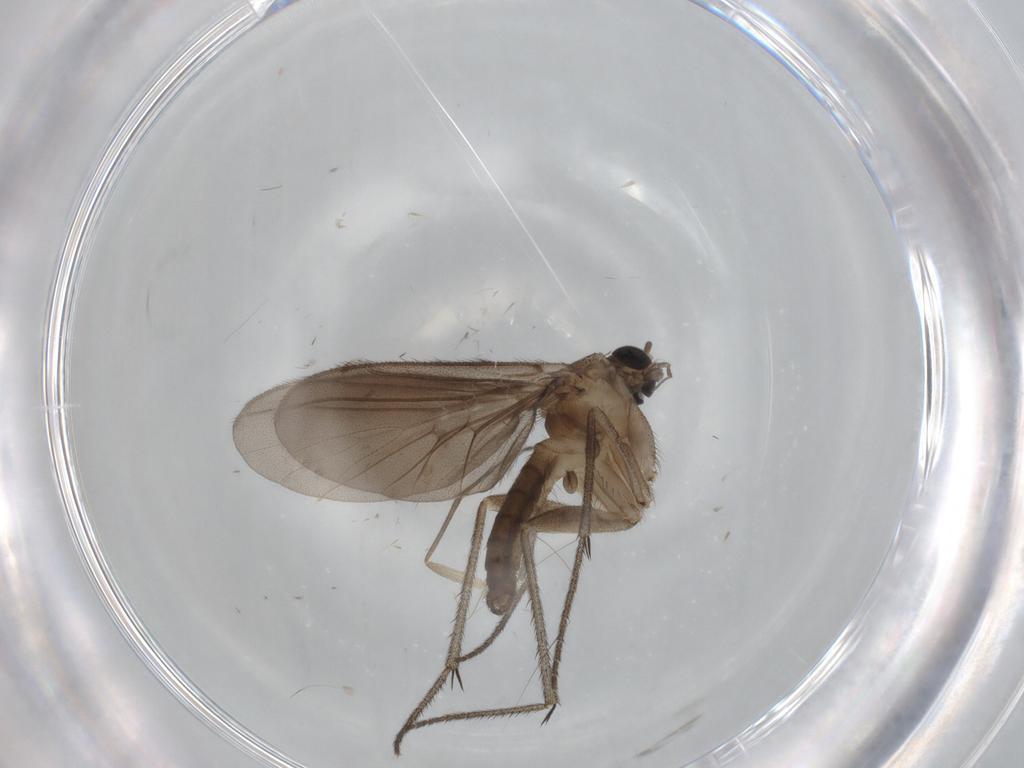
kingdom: Animalia
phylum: Arthropoda
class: Insecta
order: Diptera
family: Sciaridae
